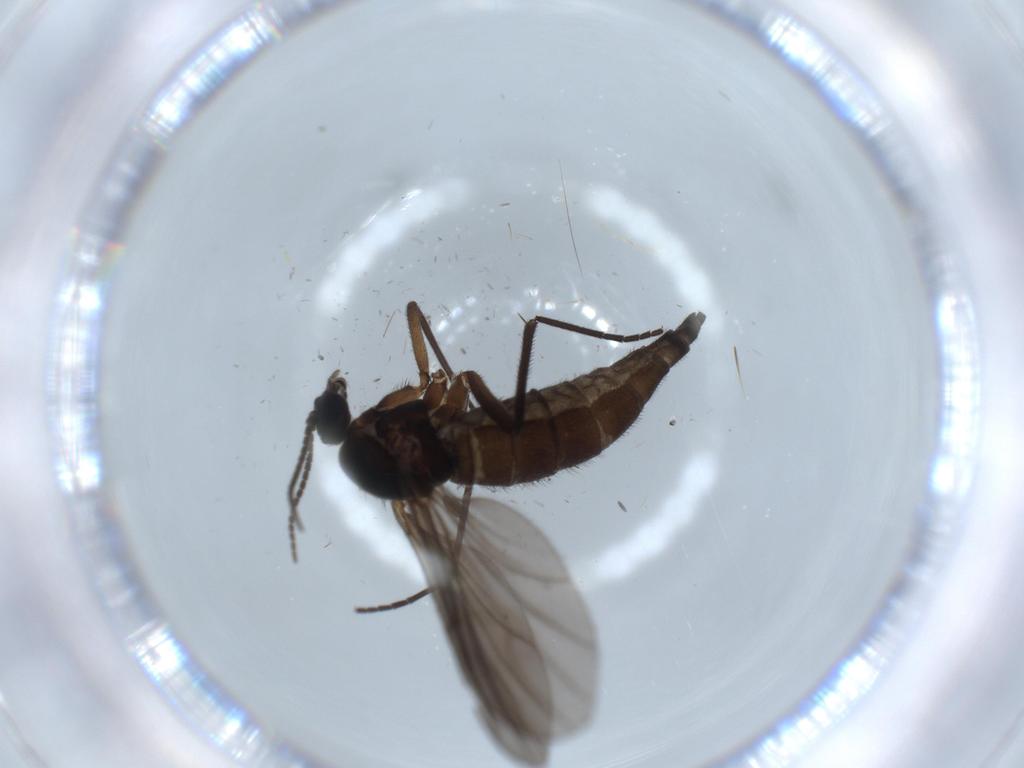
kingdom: Animalia
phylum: Arthropoda
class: Insecta
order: Diptera
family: Sciaridae
